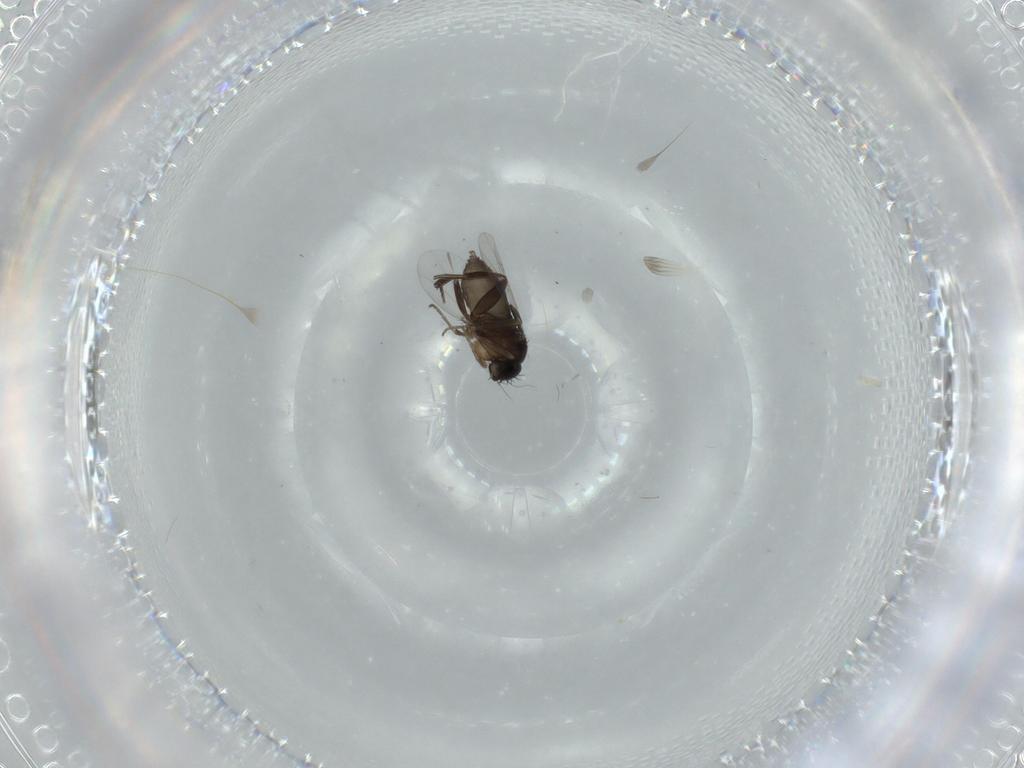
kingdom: Animalia
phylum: Arthropoda
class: Insecta
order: Diptera
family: Phoridae
